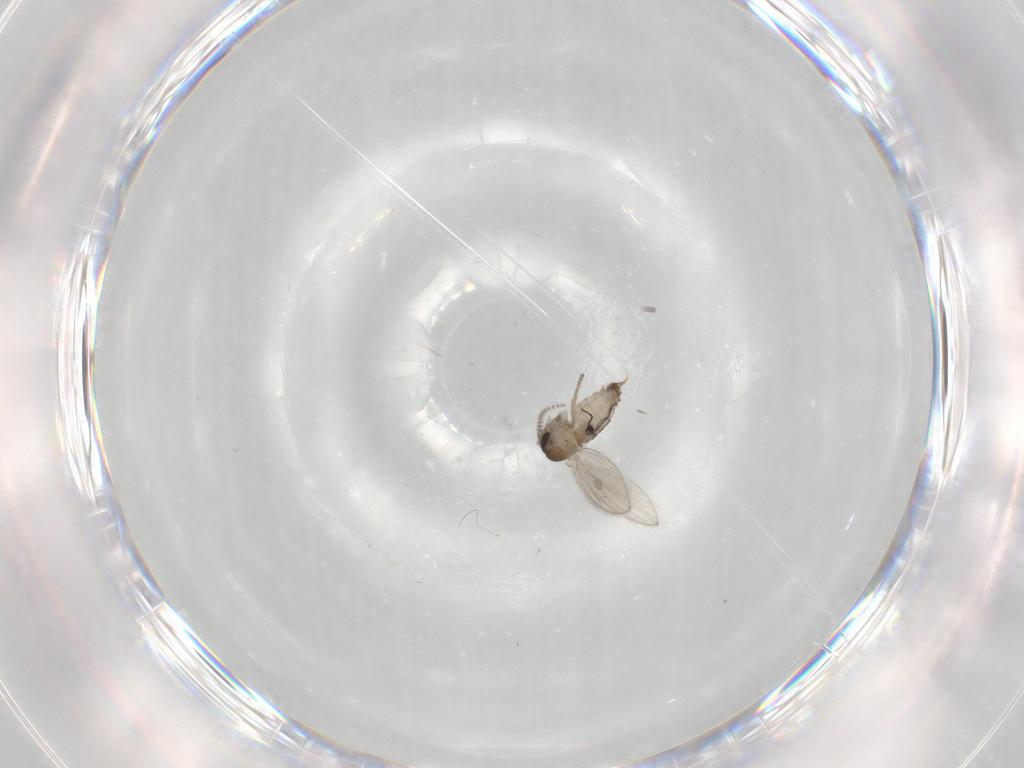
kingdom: Animalia
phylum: Arthropoda
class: Insecta
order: Diptera
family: Psychodidae
